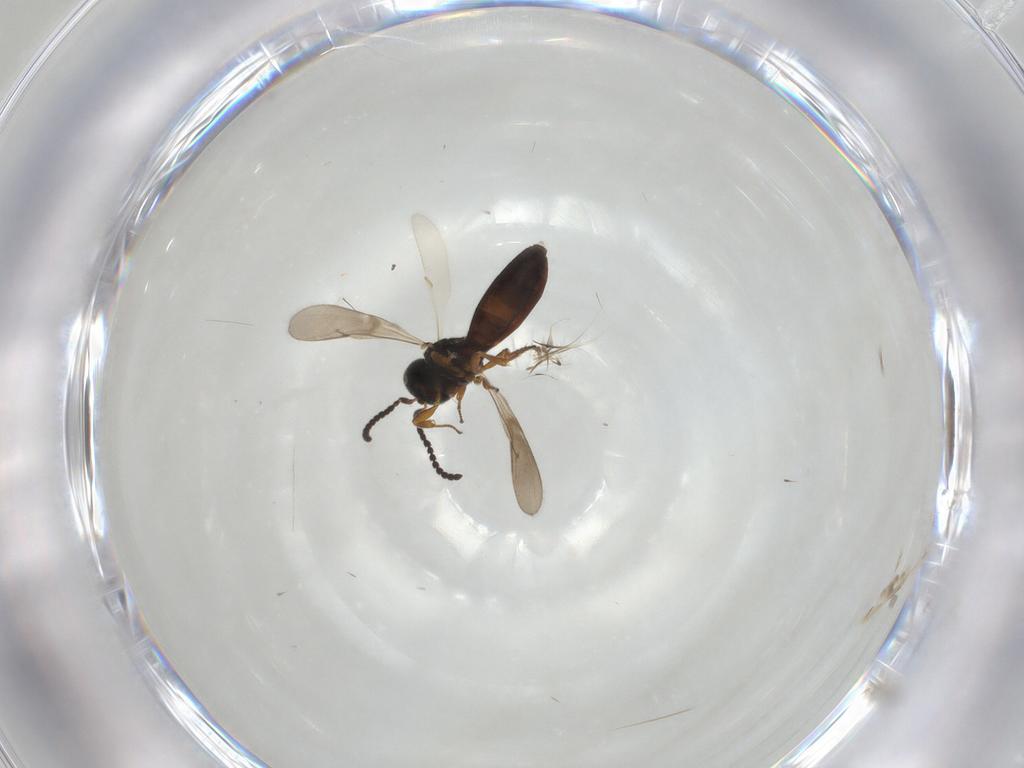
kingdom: Animalia
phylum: Arthropoda
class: Insecta
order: Hymenoptera
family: Scelionidae
